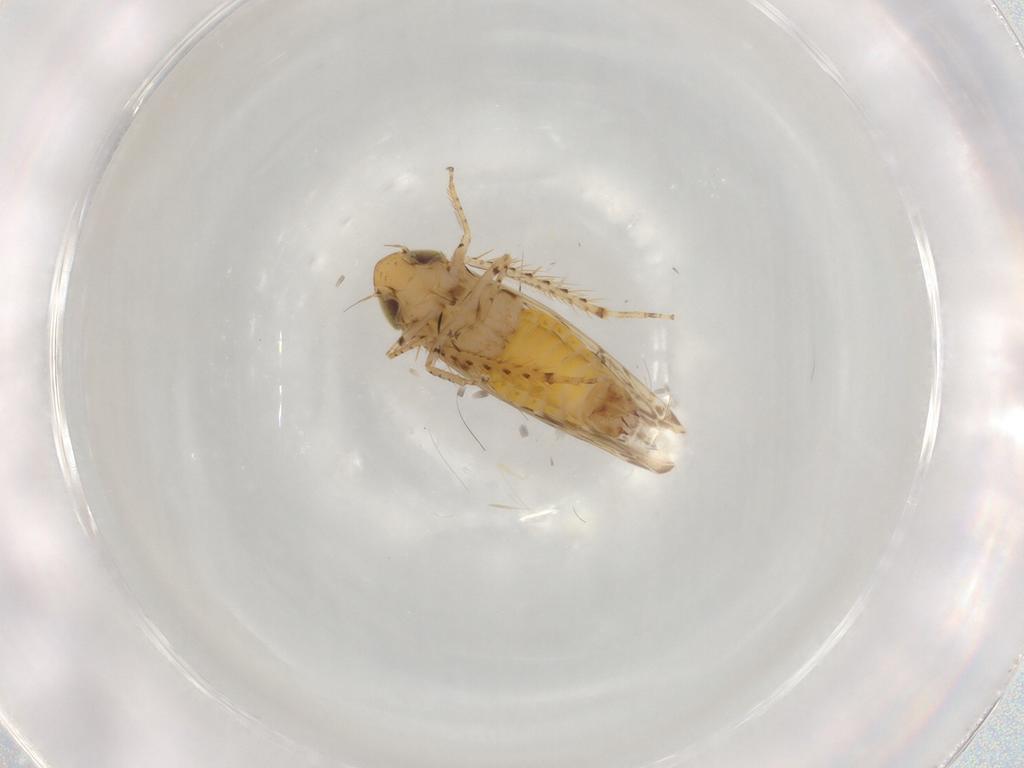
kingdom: Animalia
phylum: Arthropoda
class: Insecta
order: Hemiptera
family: Cicadellidae
